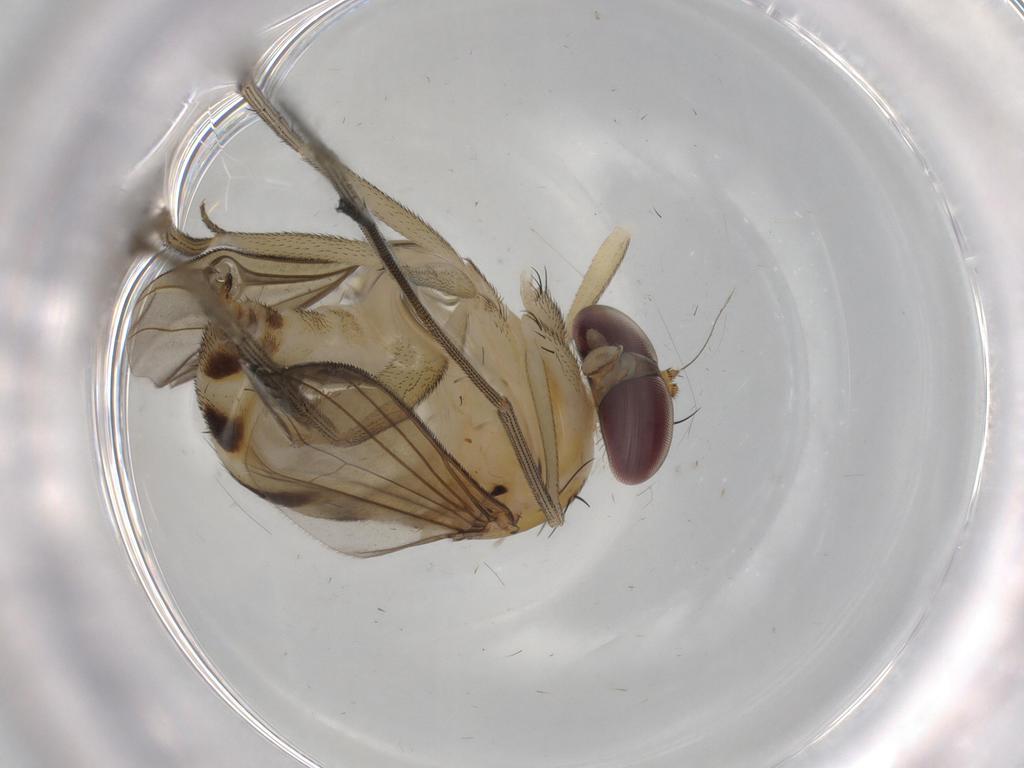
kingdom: Animalia
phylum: Arthropoda
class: Insecta
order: Diptera
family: Dolichopodidae
